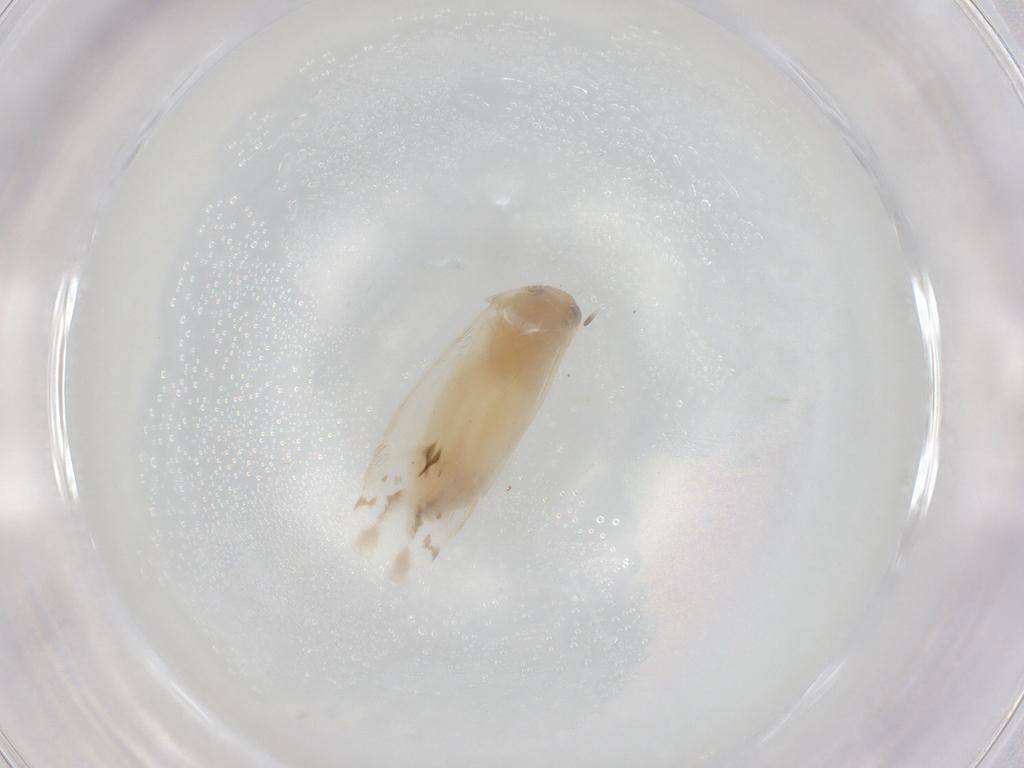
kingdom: Animalia
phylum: Arthropoda
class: Insecta
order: Hemiptera
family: Miridae
